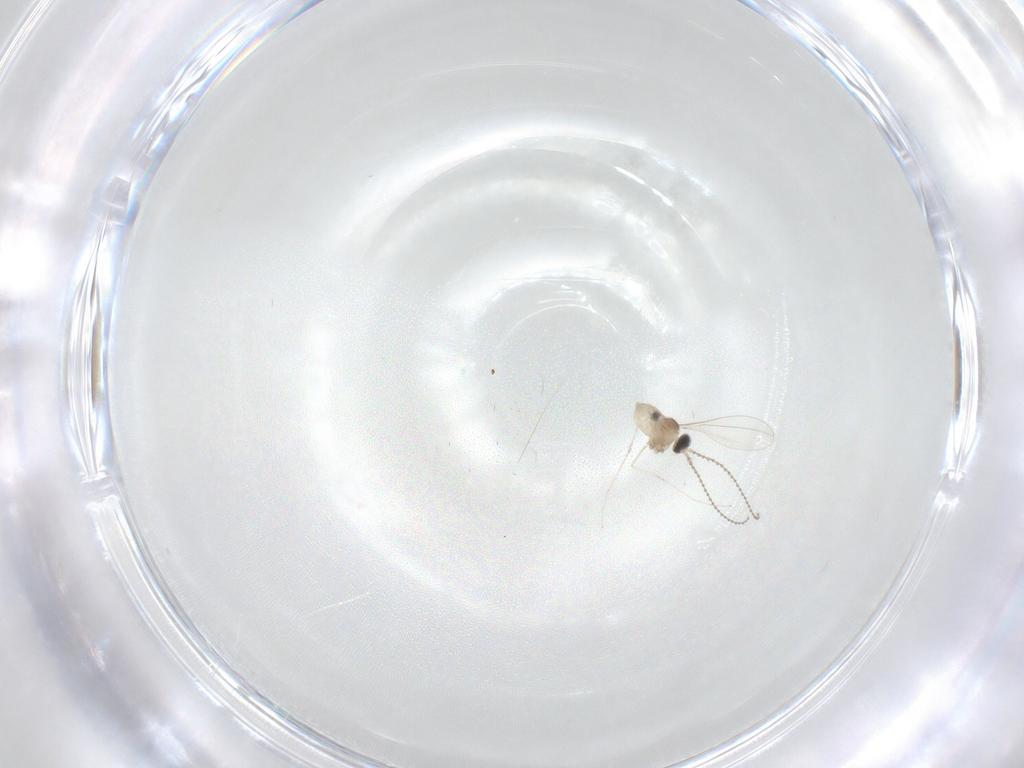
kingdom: Animalia
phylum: Arthropoda
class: Insecta
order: Diptera
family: Cecidomyiidae
